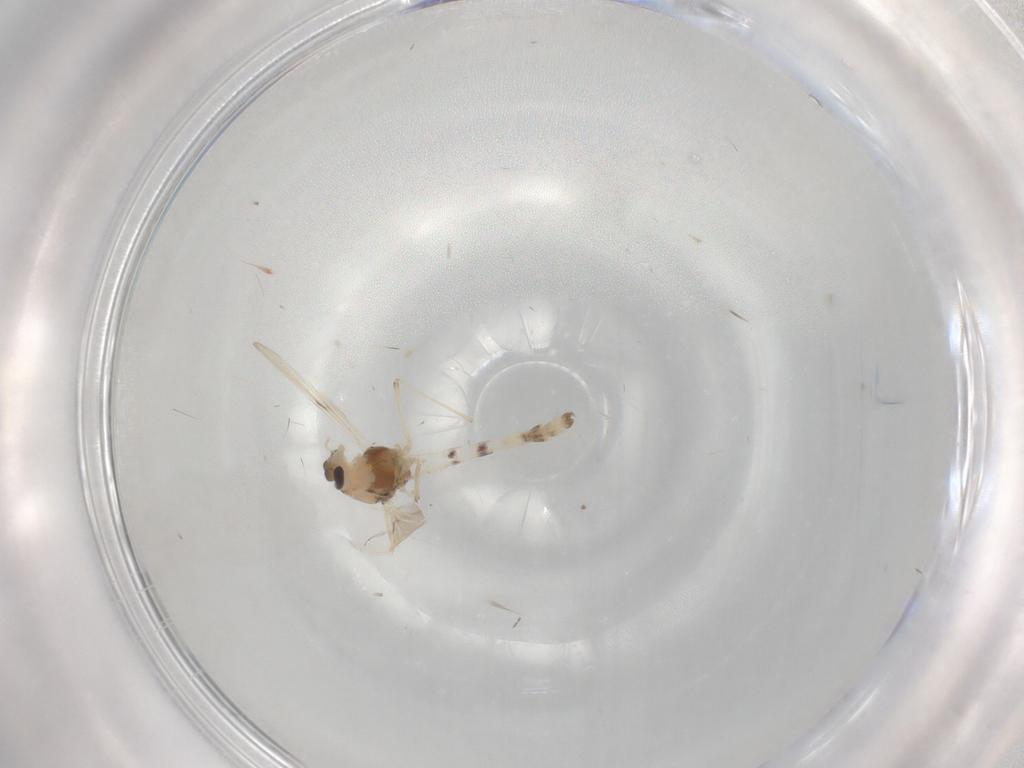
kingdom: Animalia
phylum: Arthropoda
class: Insecta
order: Diptera
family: Chironomidae
